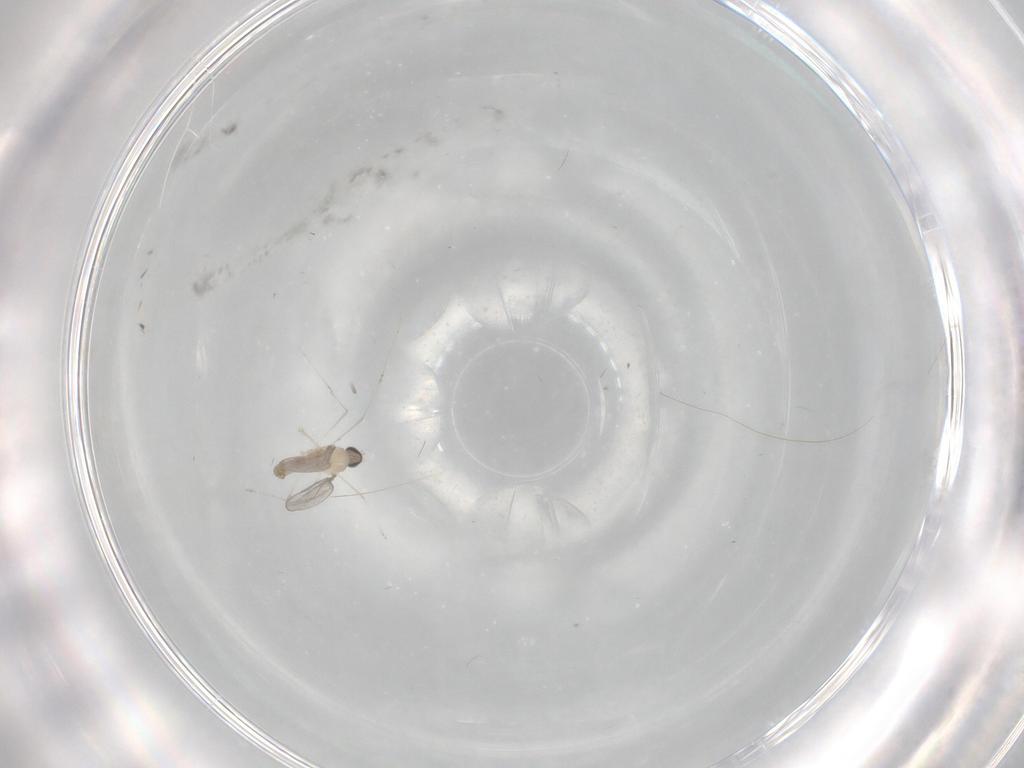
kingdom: Animalia
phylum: Arthropoda
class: Insecta
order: Diptera
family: Cecidomyiidae
